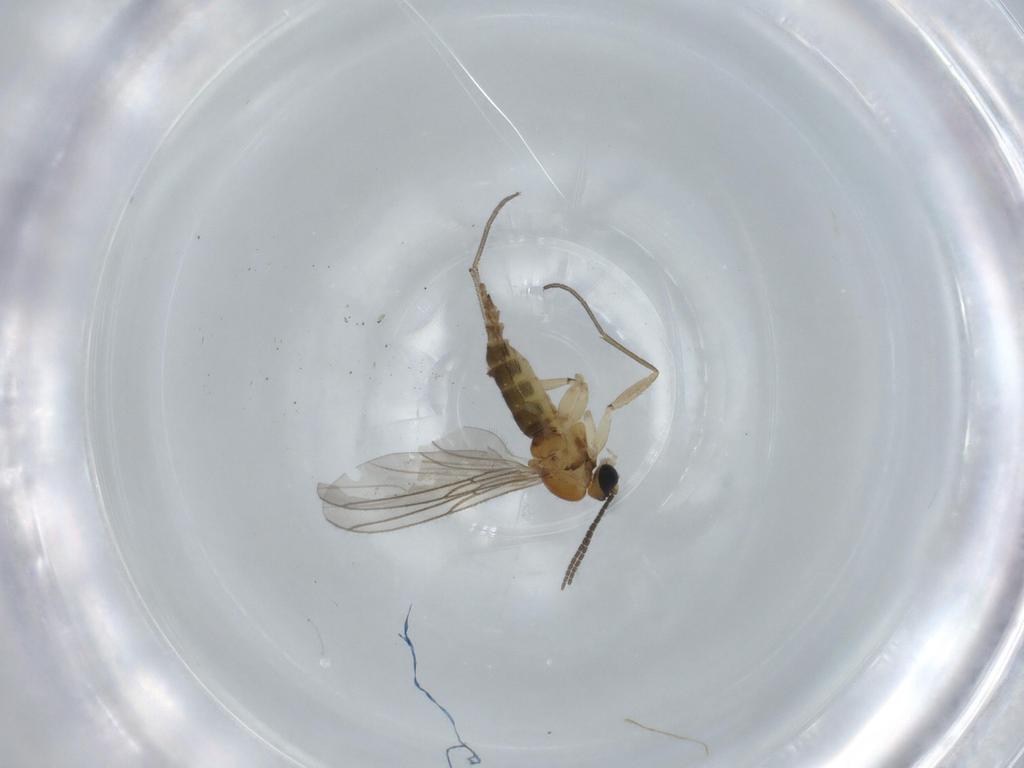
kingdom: Animalia
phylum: Arthropoda
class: Insecta
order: Diptera
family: Sciaridae
